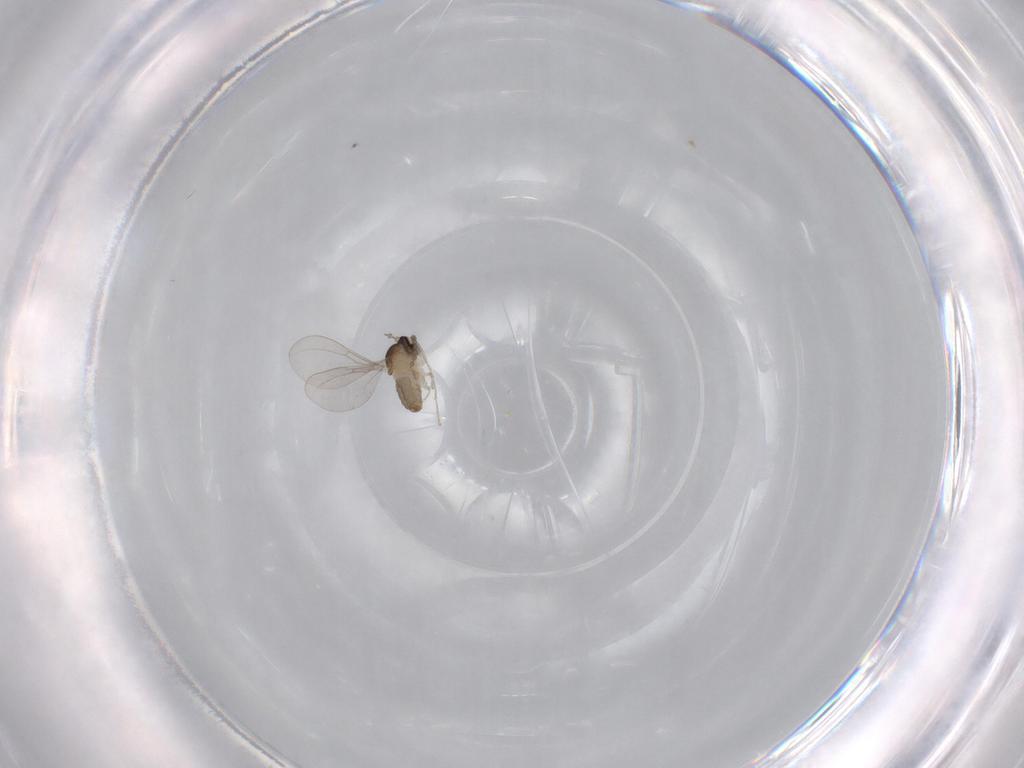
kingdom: Animalia
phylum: Arthropoda
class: Insecta
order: Diptera
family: Cecidomyiidae
